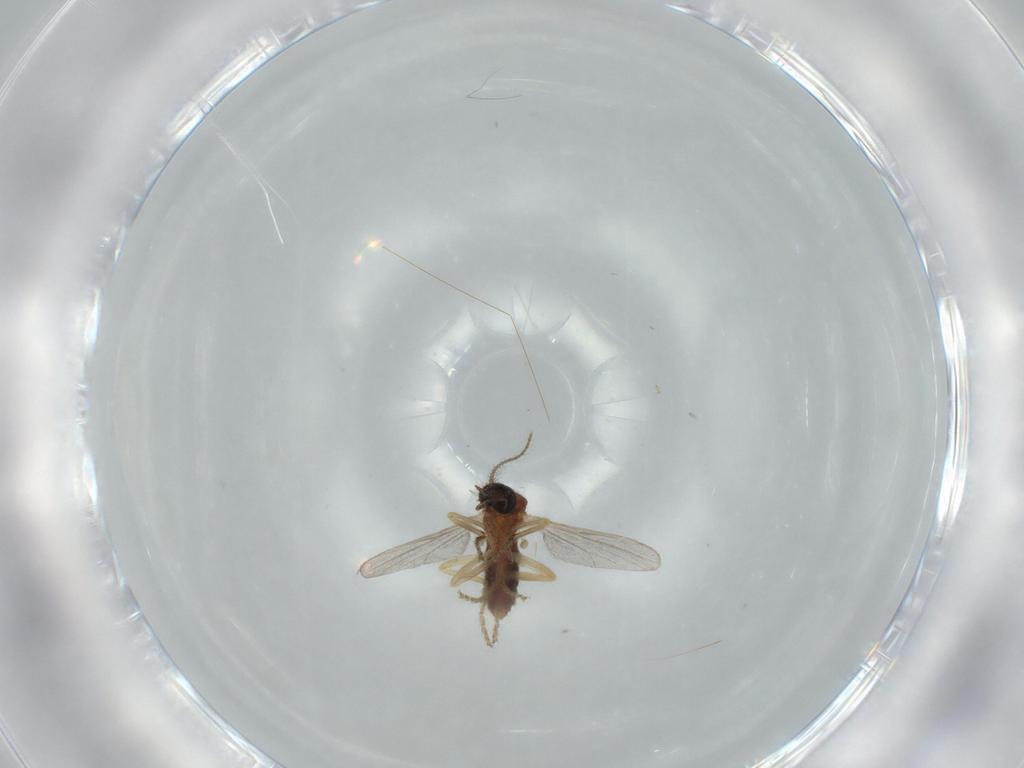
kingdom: Animalia
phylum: Arthropoda
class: Insecta
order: Diptera
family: Ceratopogonidae
